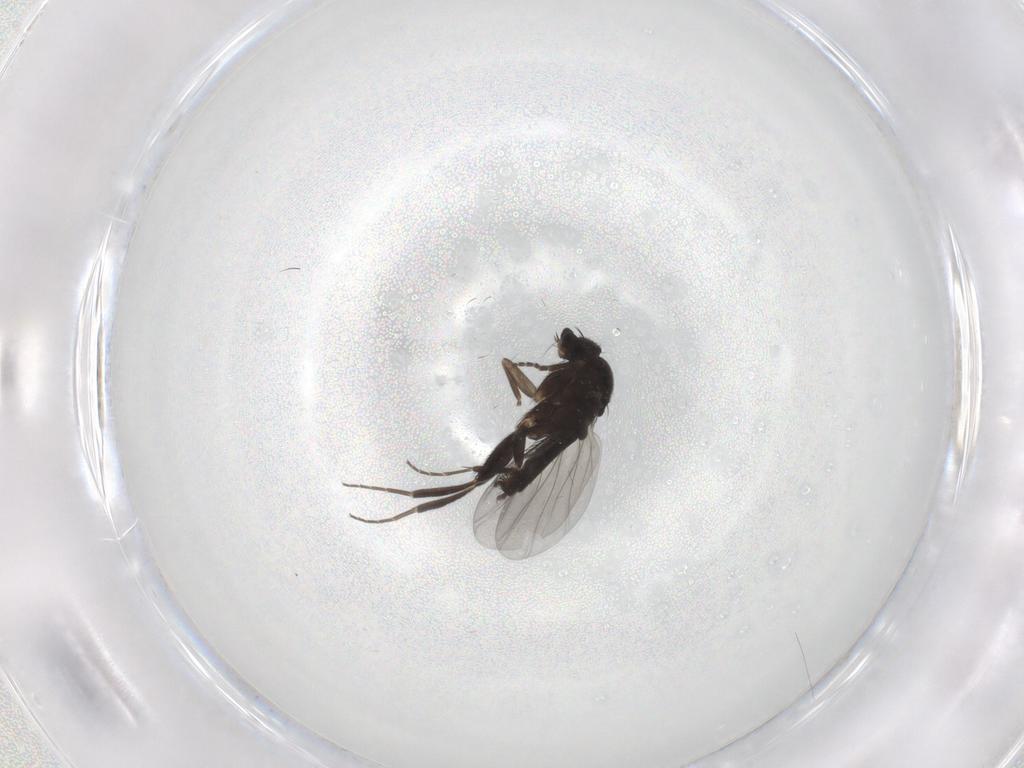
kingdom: Animalia
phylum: Arthropoda
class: Insecta
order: Diptera
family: Phoridae
